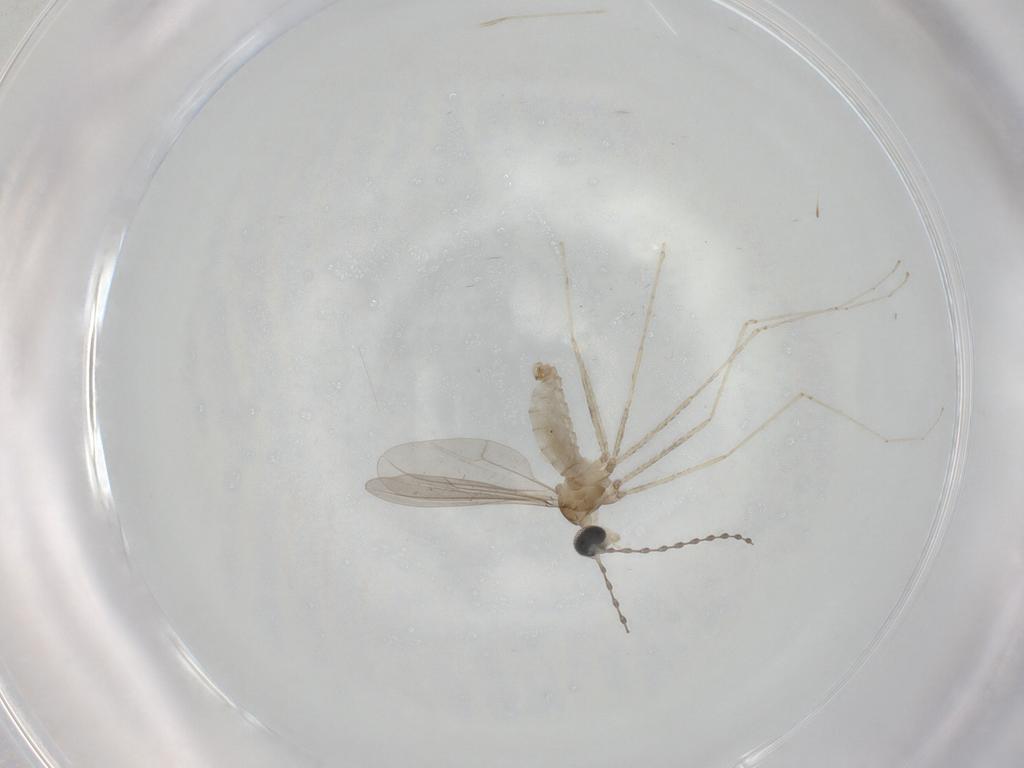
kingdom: Animalia
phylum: Arthropoda
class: Insecta
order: Diptera
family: Cecidomyiidae
